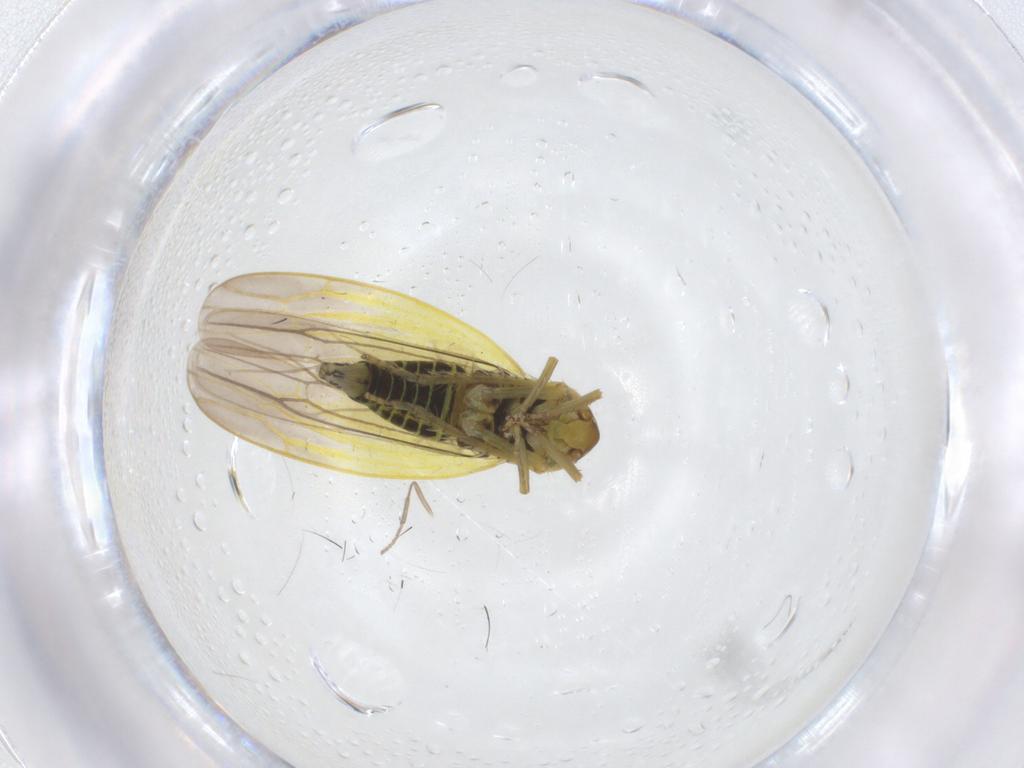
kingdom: Animalia
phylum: Arthropoda
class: Insecta
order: Hemiptera
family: Cicadellidae
